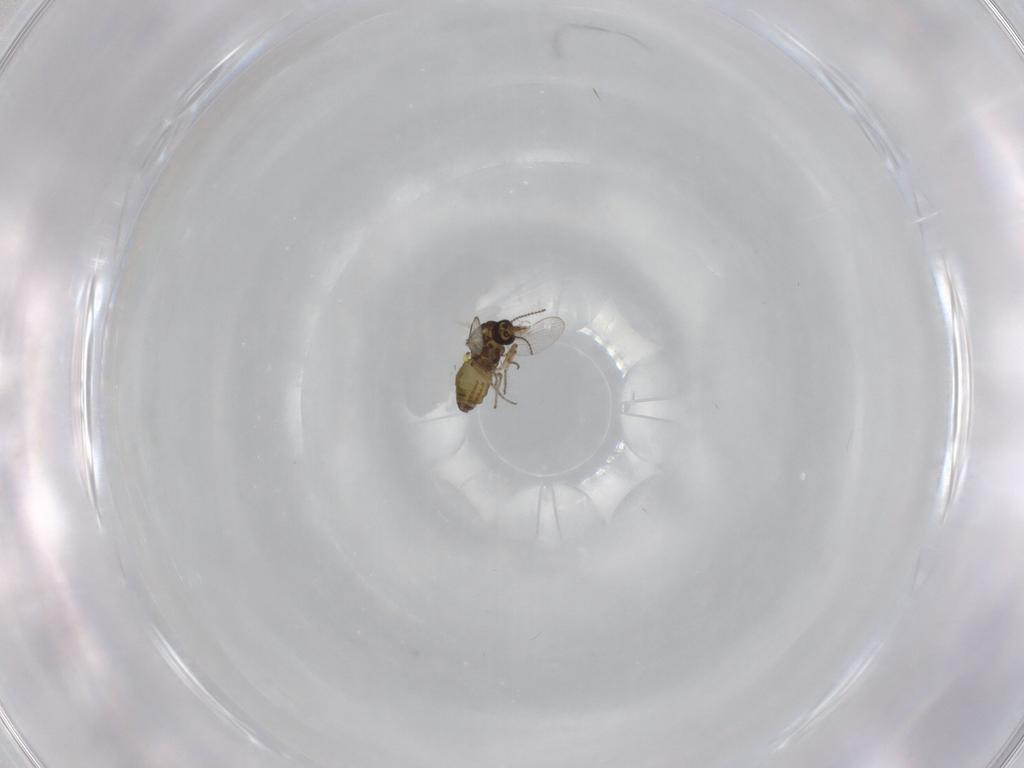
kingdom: Animalia
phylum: Arthropoda
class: Insecta
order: Diptera
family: Ceratopogonidae
